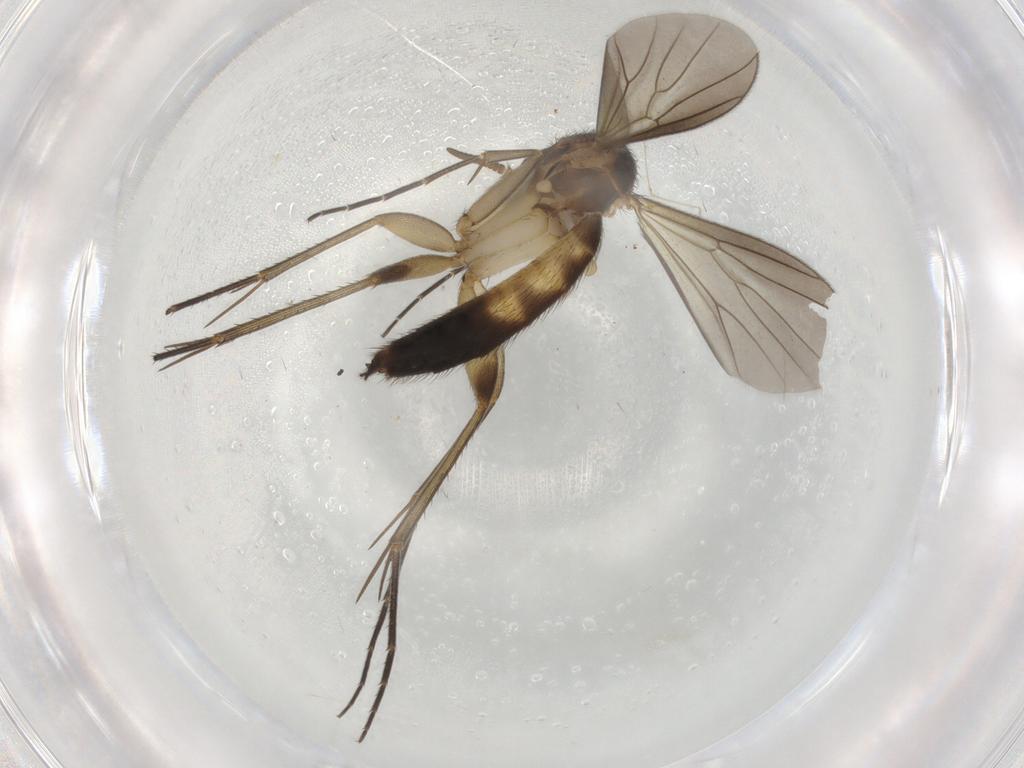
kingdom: Animalia
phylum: Arthropoda
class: Insecta
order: Diptera
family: Mycetophilidae
